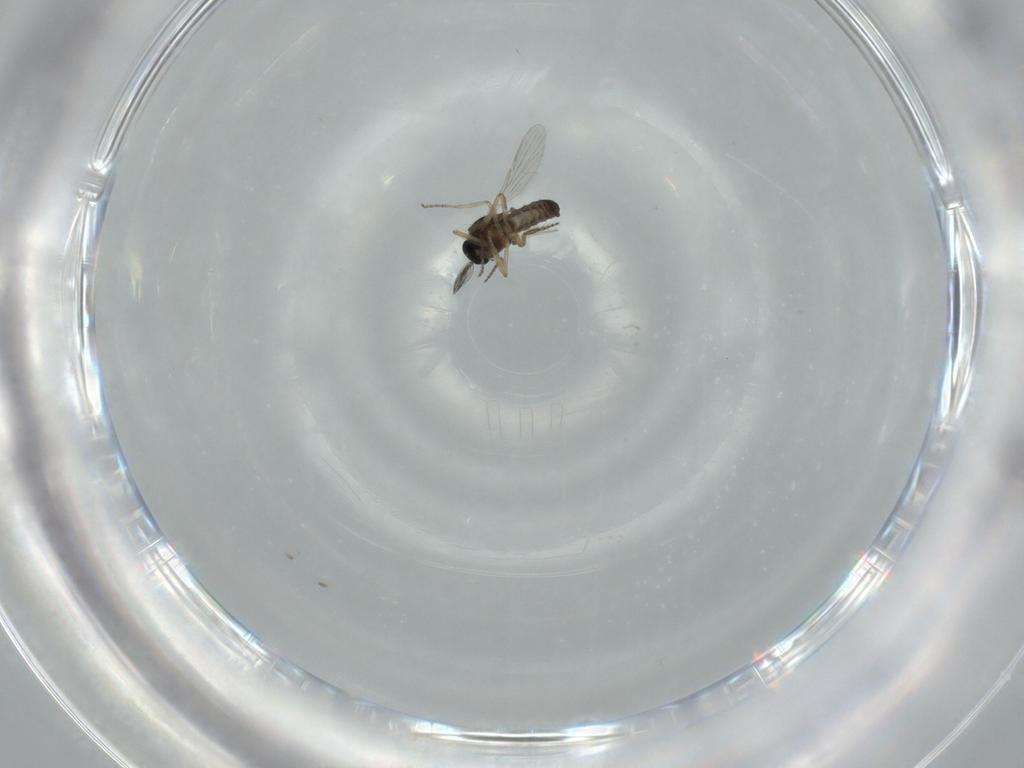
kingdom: Animalia
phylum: Arthropoda
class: Insecta
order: Diptera
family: Ceratopogonidae
